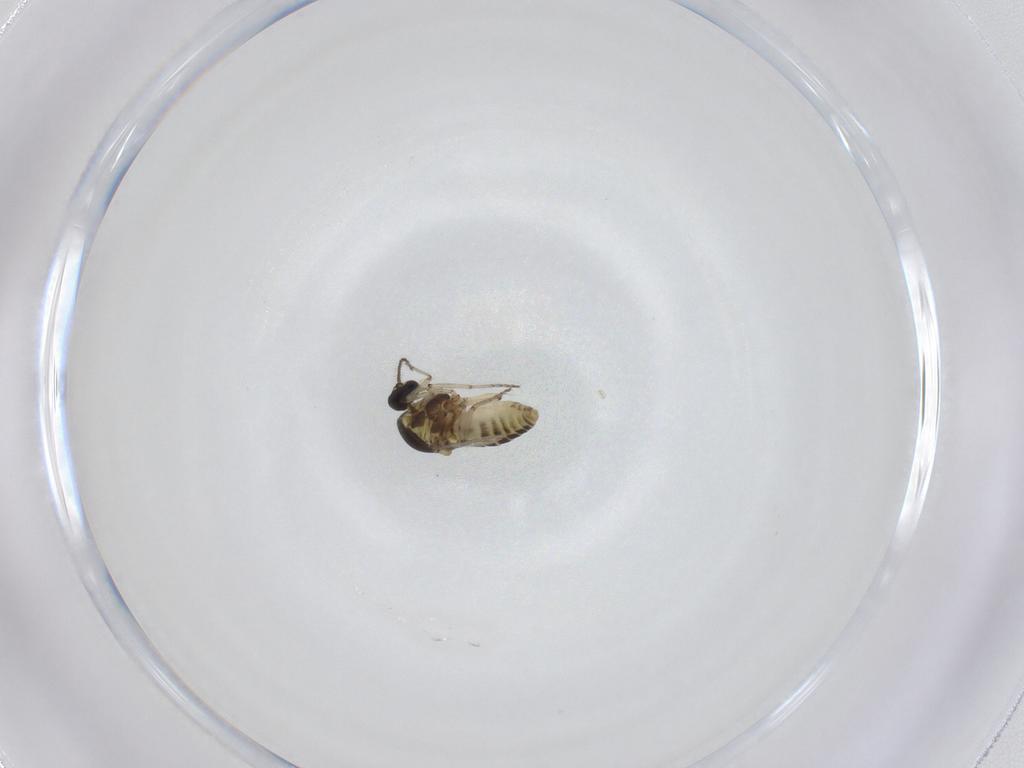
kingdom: Animalia
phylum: Arthropoda
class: Insecta
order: Diptera
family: Ceratopogonidae
